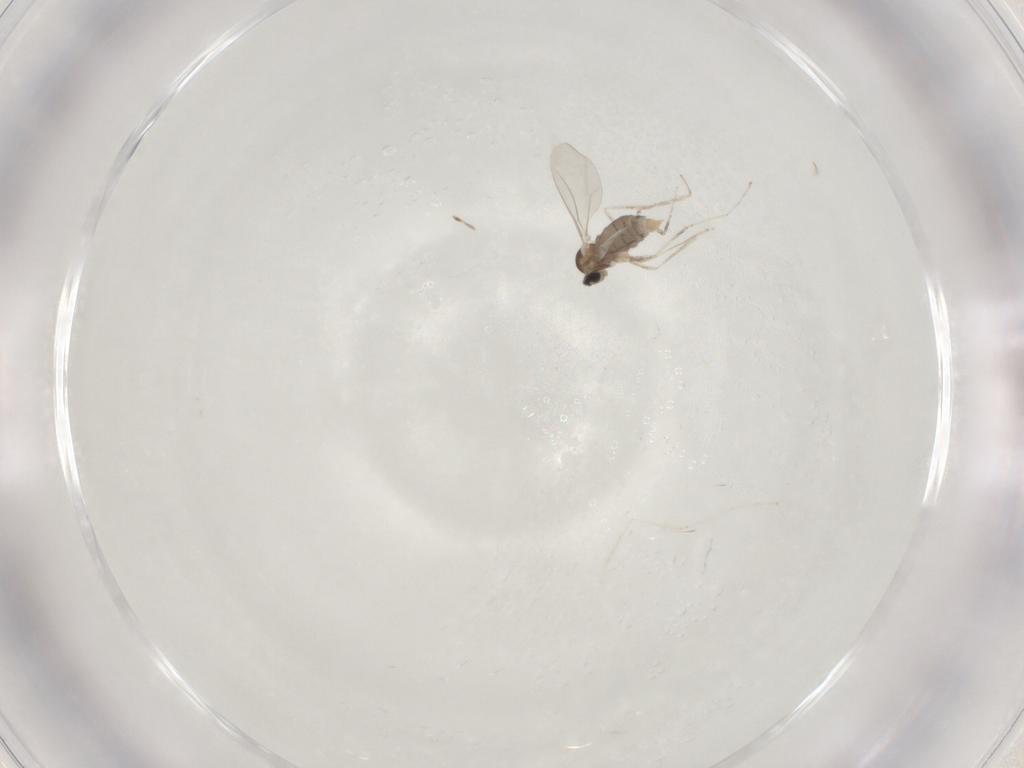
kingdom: Animalia
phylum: Arthropoda
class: Insecta
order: Diptera
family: Cecidomyiidae
